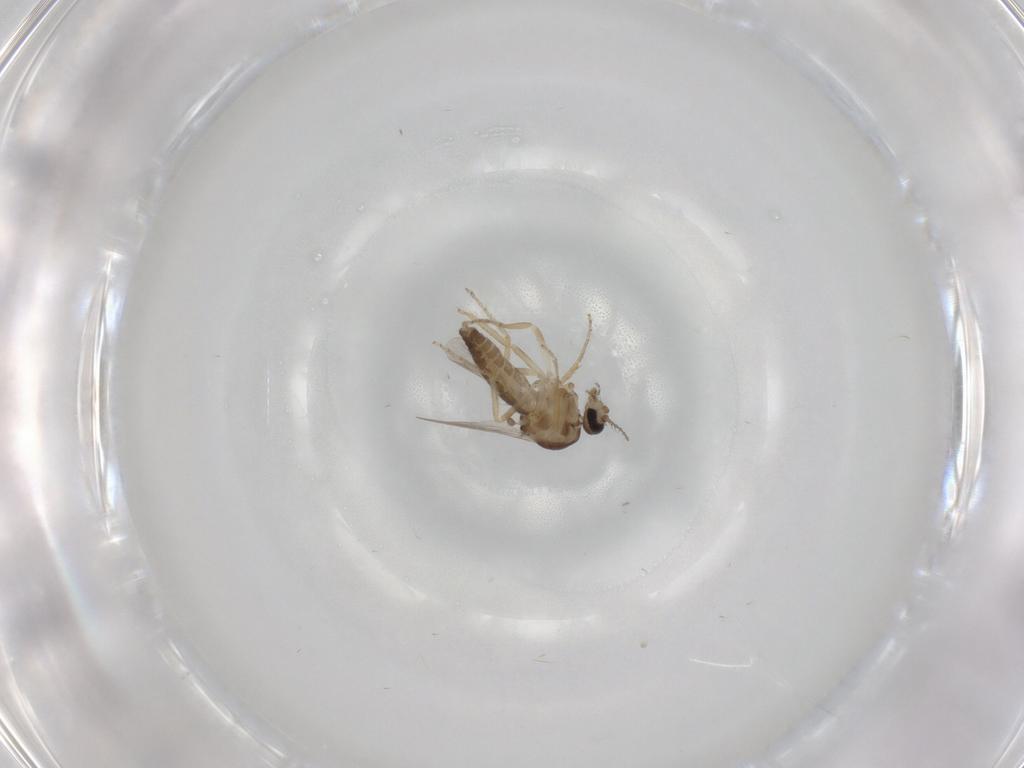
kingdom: Animalia
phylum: Arthropoda
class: Insecta
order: Diptera
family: Ceratopogonidae
